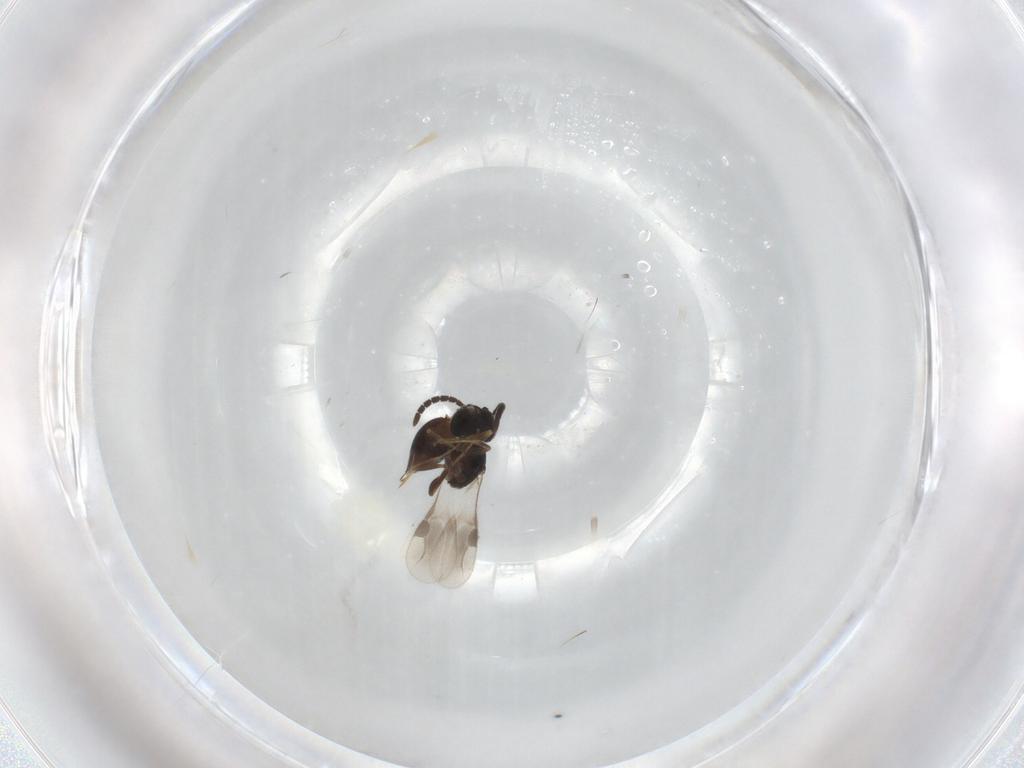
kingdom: Animalia
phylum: Arthropoda
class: Insecta
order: Hymenoptera
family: Megaspilidae
